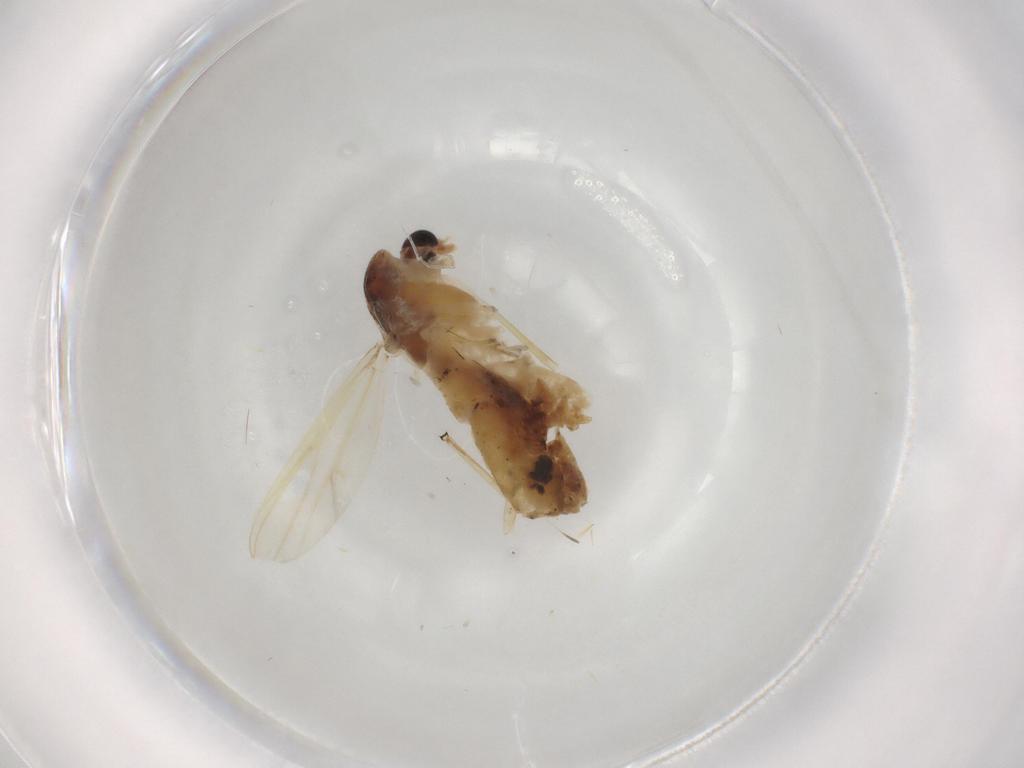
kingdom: Animalia
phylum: Arthropoda
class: Insecta
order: Diptera
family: Chironomidae
